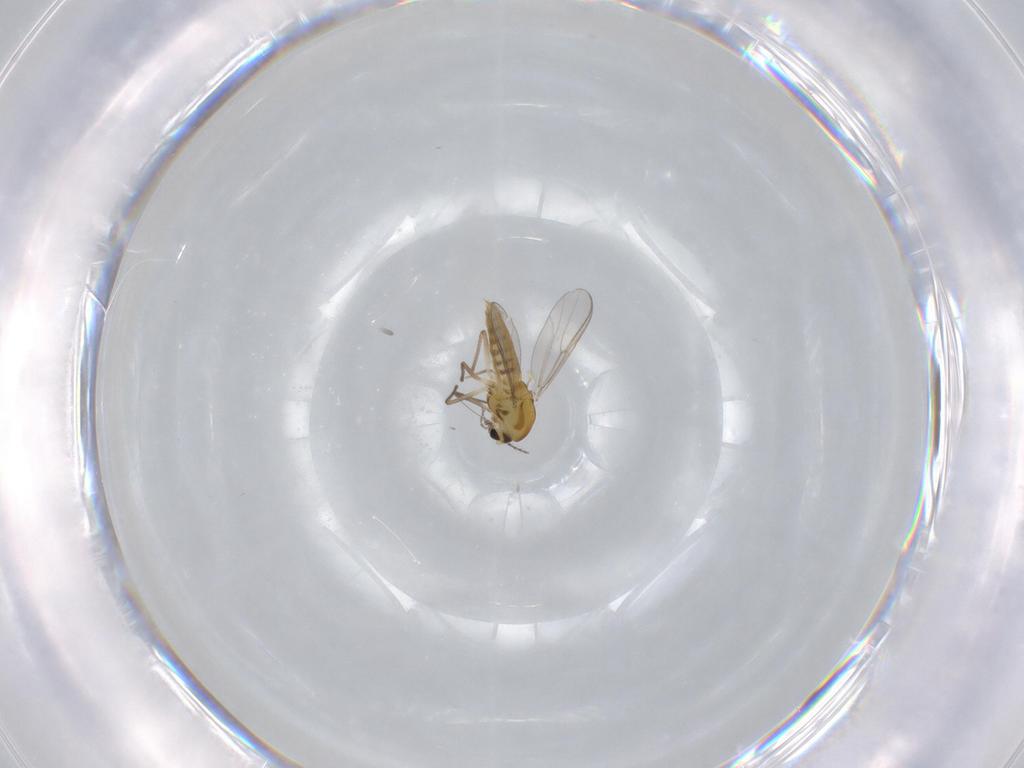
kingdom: Animalia
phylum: Arthropoda
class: Insecta
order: Diptera
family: Chironomidae
